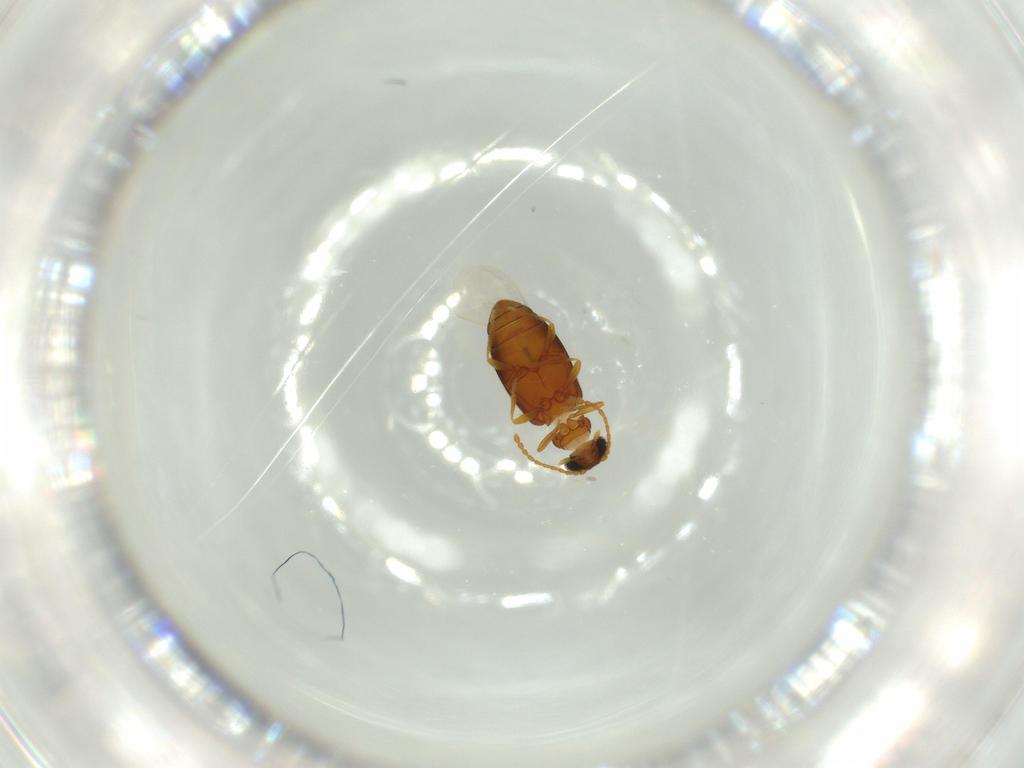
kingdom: Animalia
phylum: Arthropoda
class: Insecta
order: Coleoptera
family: Aderidae
